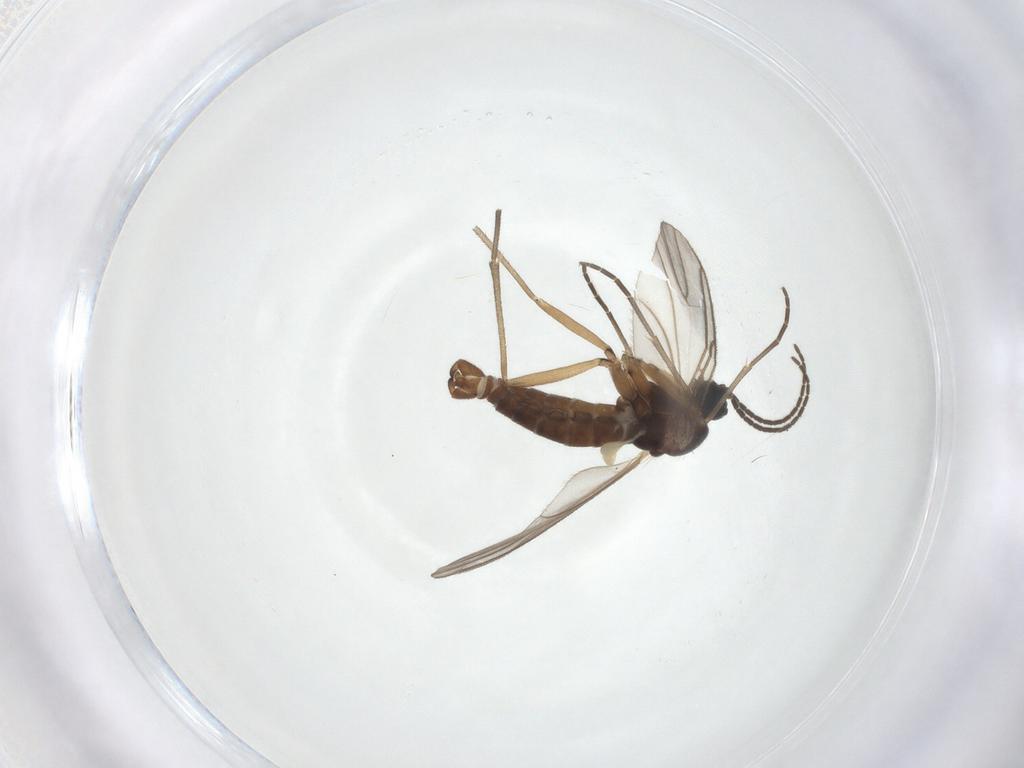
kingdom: Animalia
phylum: Arthropoda
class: Insecta
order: Diptera
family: Sciaridae
